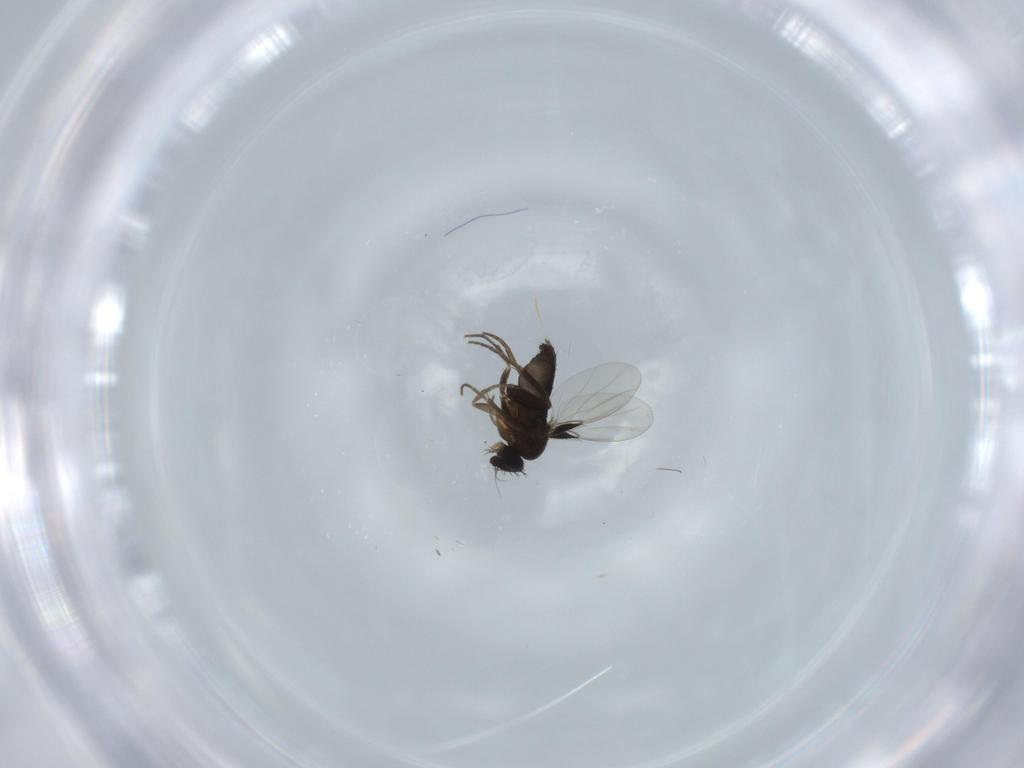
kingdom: Animalia
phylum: Arthropoda
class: Insecta
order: Diptera
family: Phoridae
